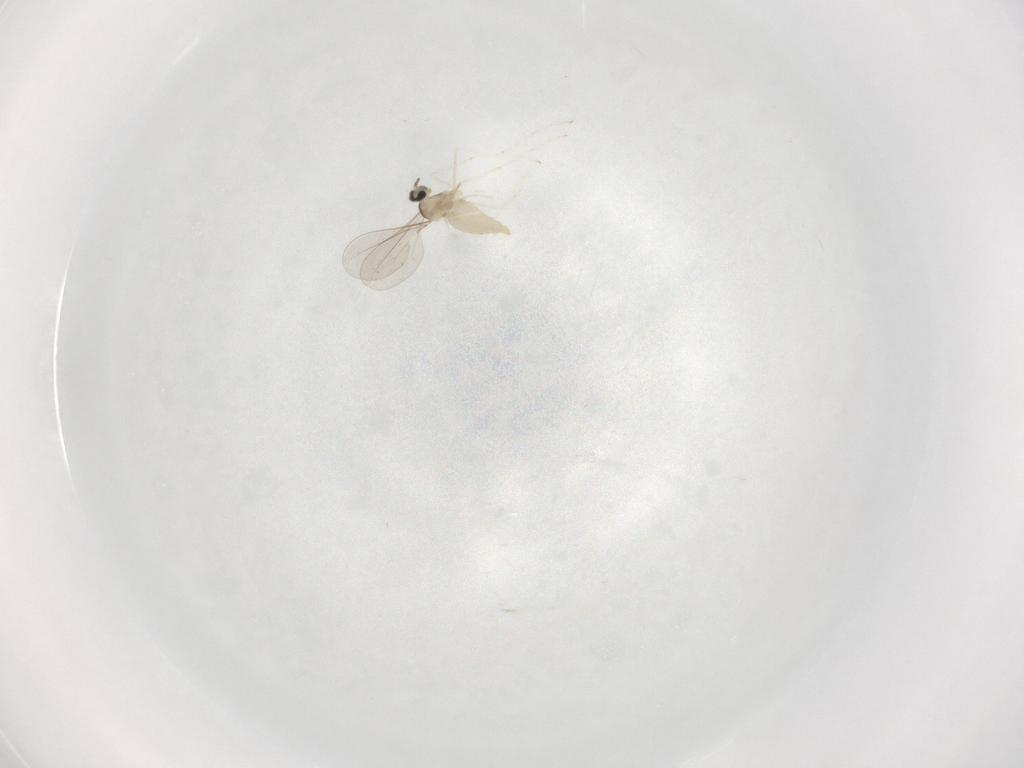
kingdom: Animalia
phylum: Arthropoda
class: Insecta
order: Diptera
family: Cecidomyiidae
